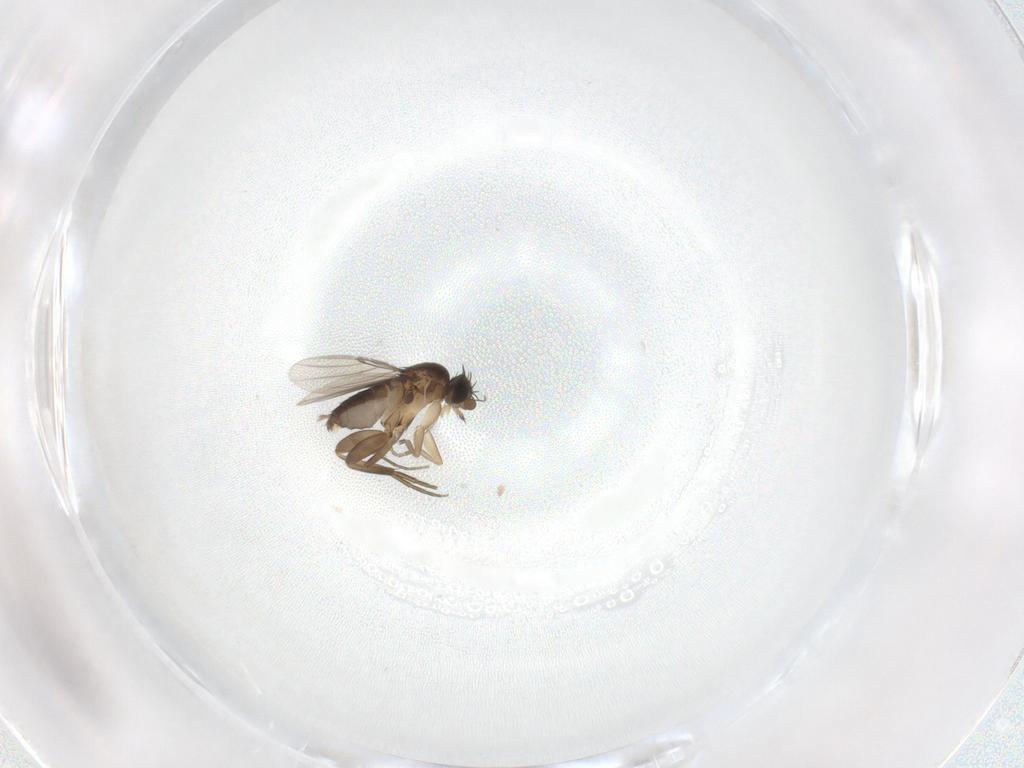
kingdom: Animalia
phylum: Arthropoda
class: Insecta
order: Diptera
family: Phoridae
